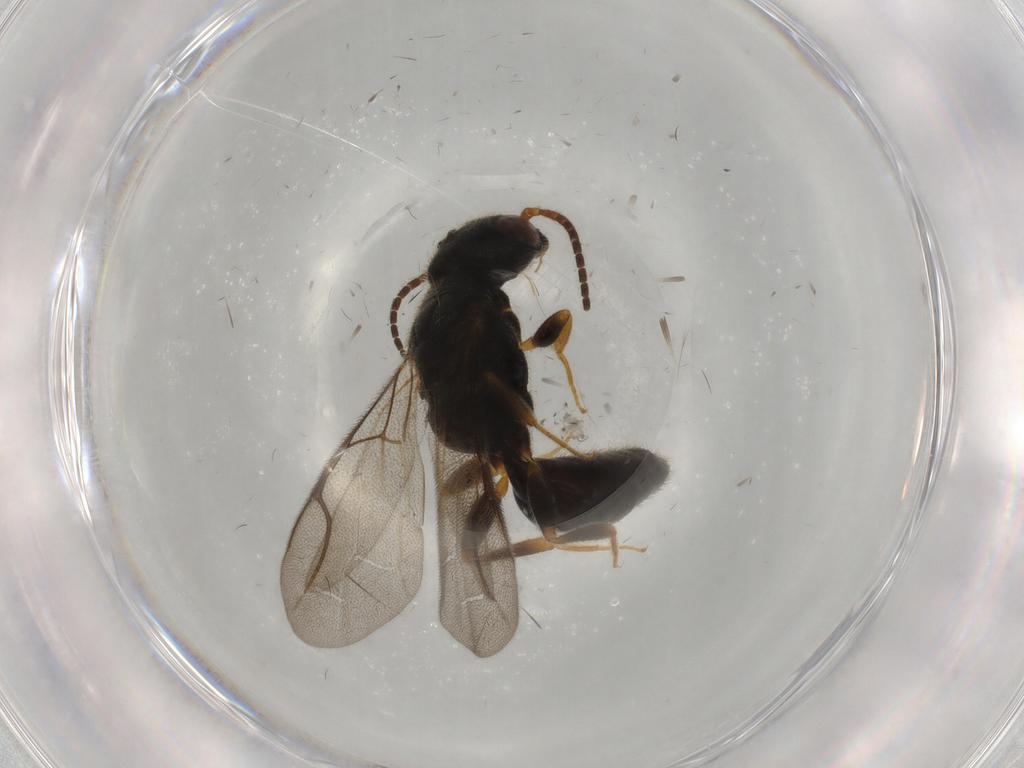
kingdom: Animalia
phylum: Arthropoda
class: Insecta
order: Hymenoptera
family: Bethylidae
